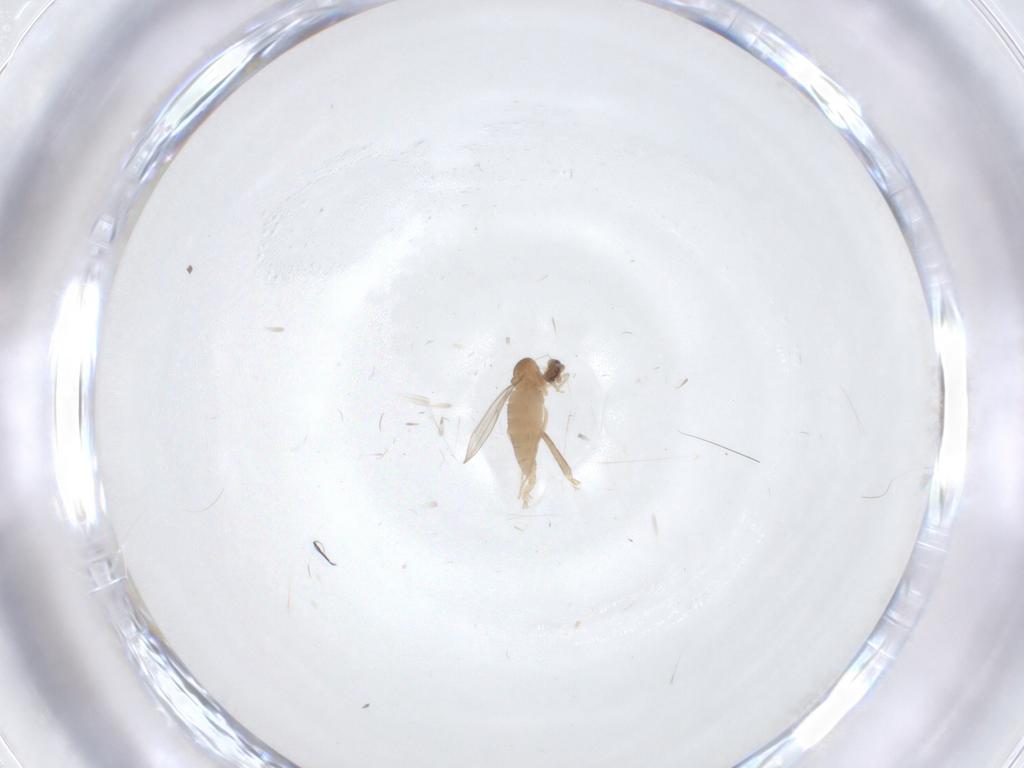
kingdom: Animalia
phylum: Arthropoda
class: Insecta
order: Diptera
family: Cecidomyiidae
